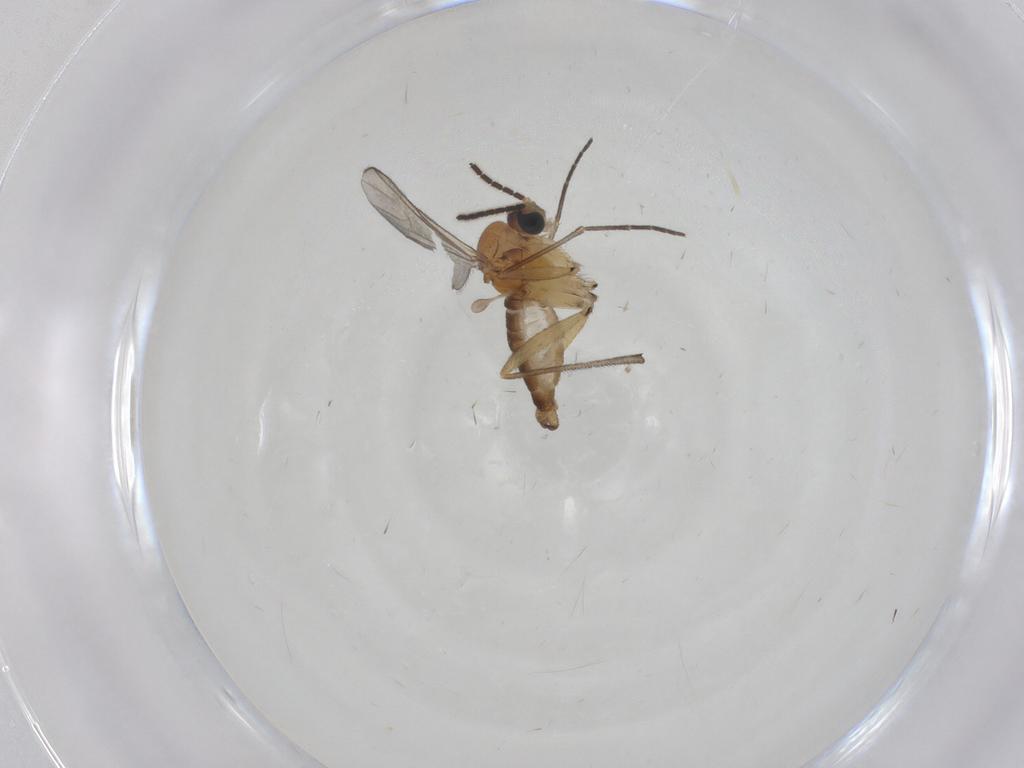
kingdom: Animalia
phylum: Arthropoda
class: Insecta
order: Diptera
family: Sciaridae
